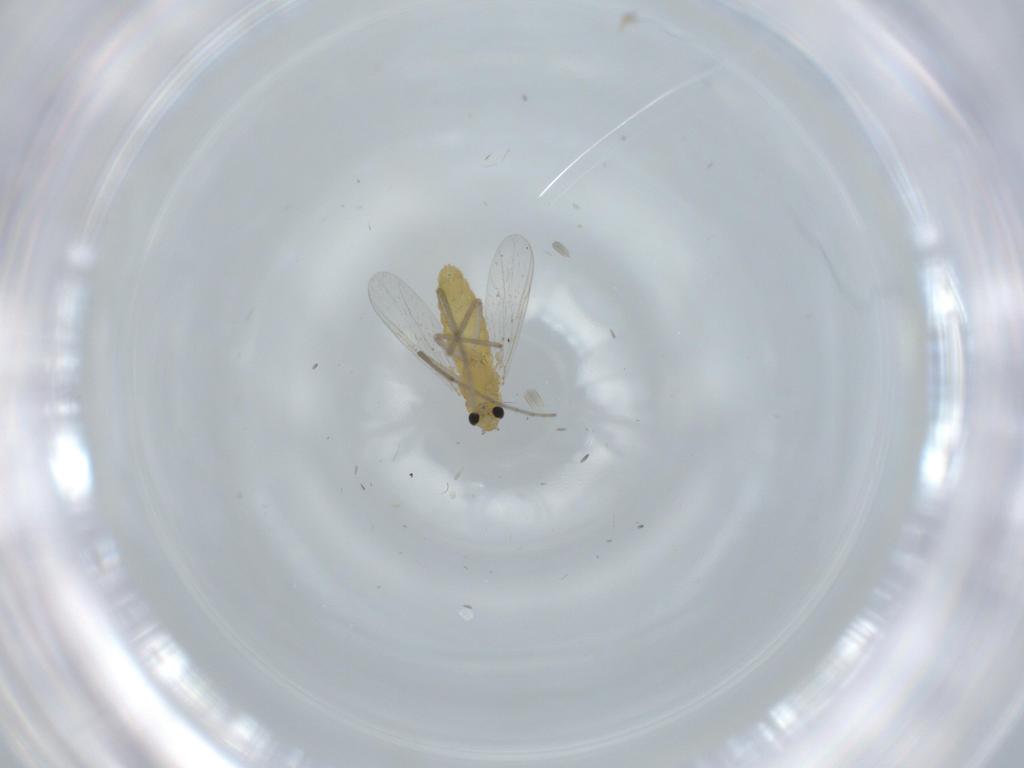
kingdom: Animalia
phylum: Arthropoda
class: Insecta
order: Diptera
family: Chironomidae
